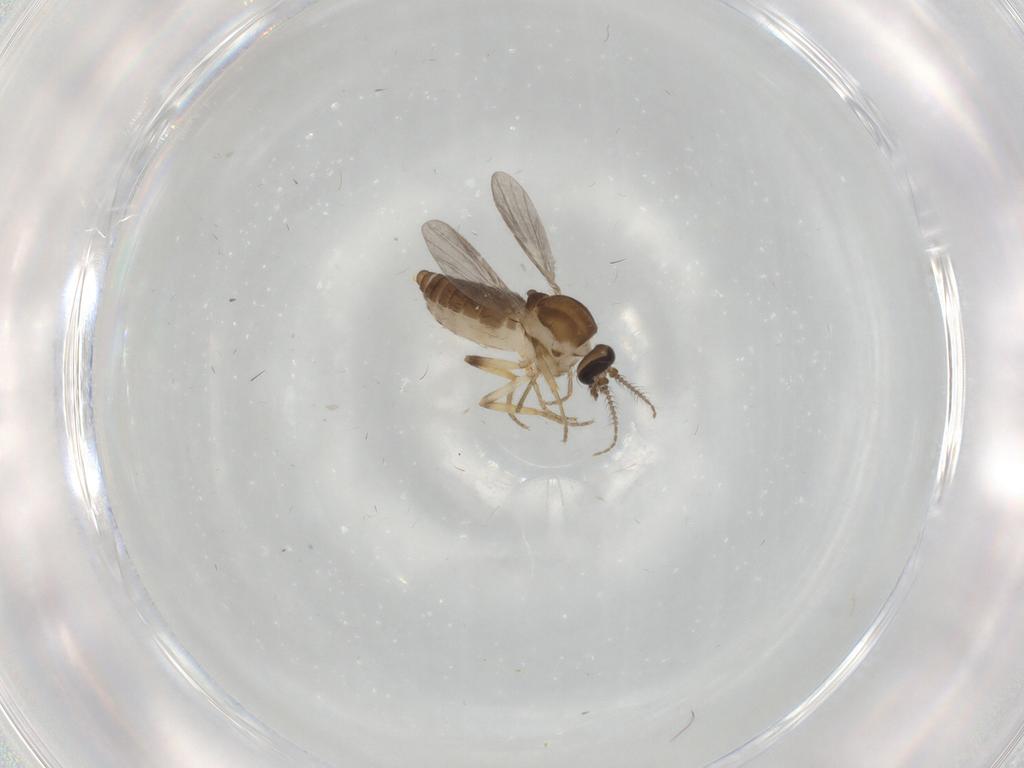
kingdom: Animalia
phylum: Arthropoda
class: Insecta
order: Diptera
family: Ceratopogonidae
